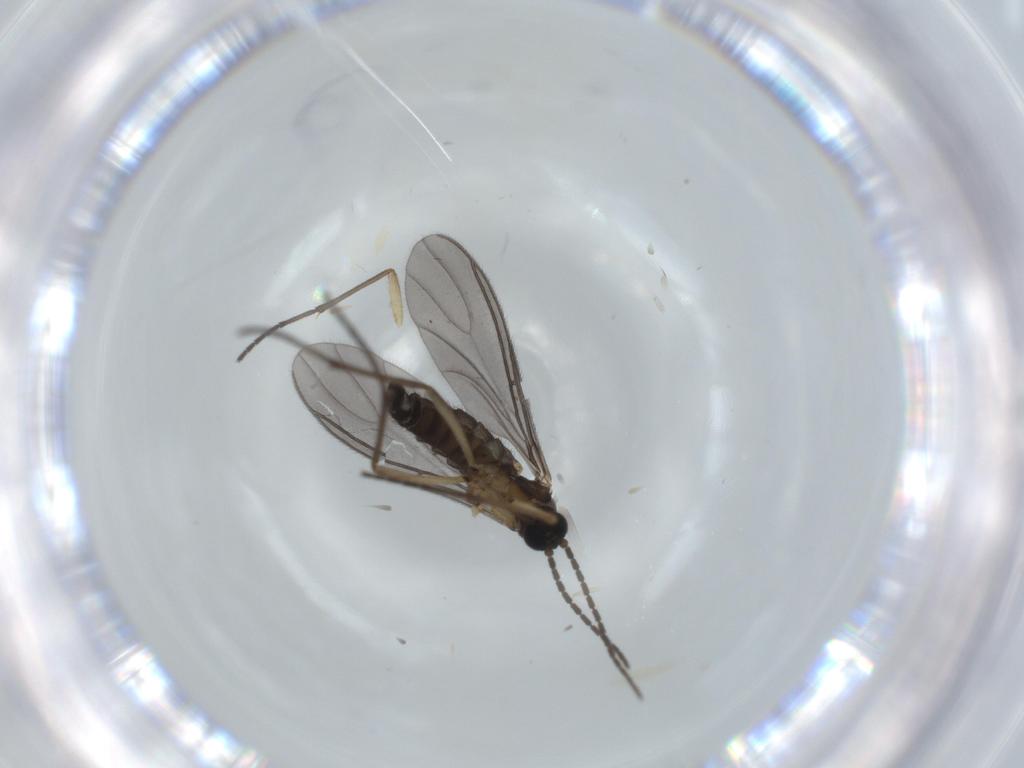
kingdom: Animalia
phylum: Arthropoda
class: Insecta
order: Diptera
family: Sciaridae
